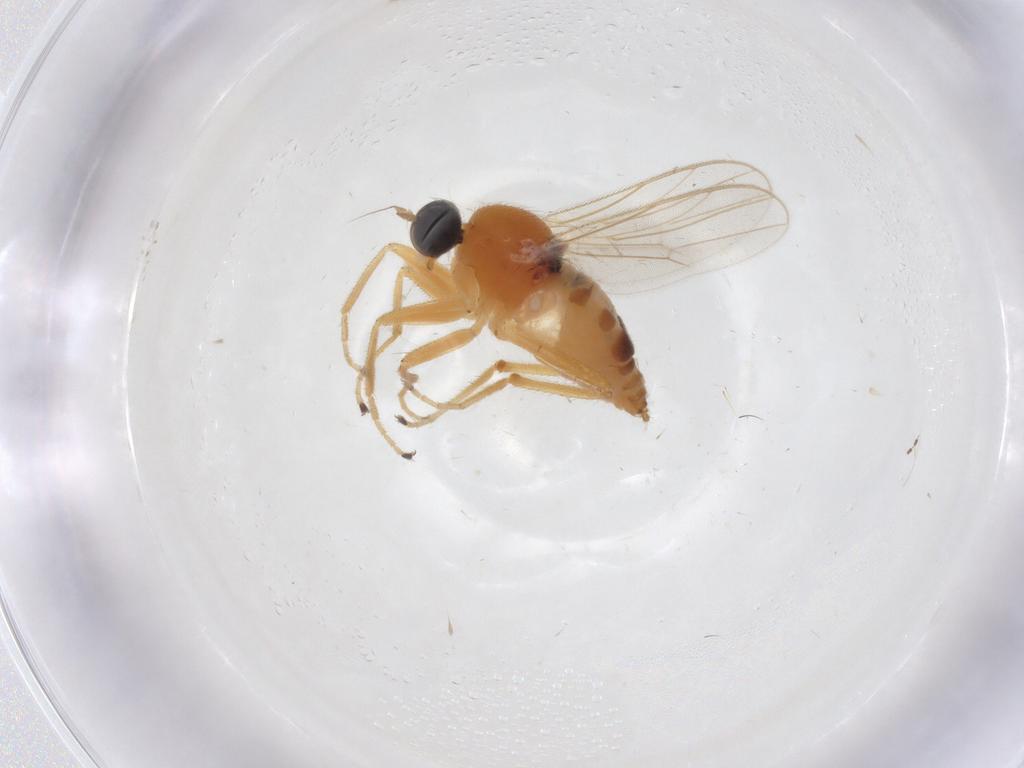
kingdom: Animalia
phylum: Arthropoda
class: Insecta
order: Diptera
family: Hybotidae
